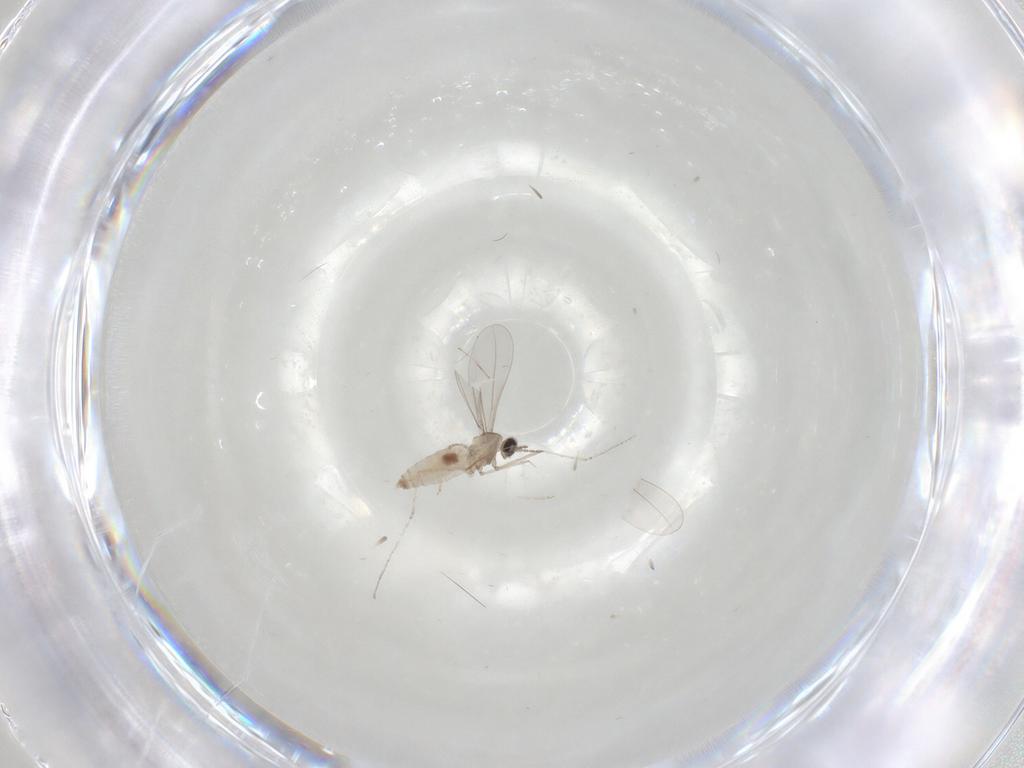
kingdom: Animalia
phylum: Arthropoda
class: Insecta
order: Diptera
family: Cecidomyiidae
